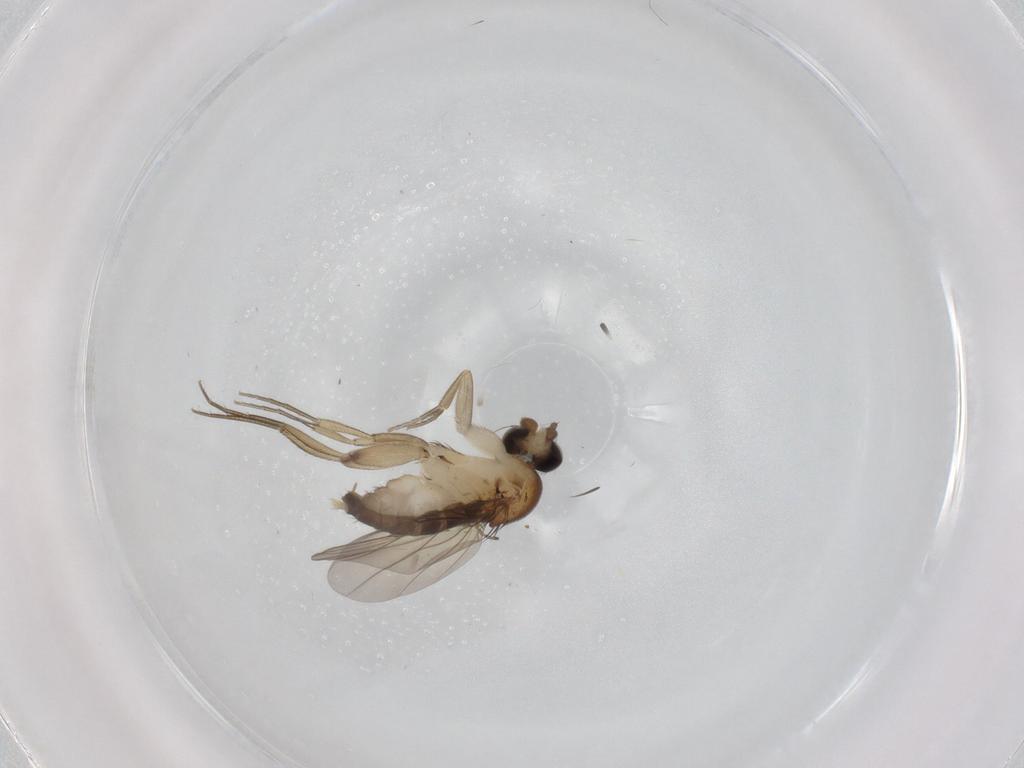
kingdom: Animalia
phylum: Arthropoda
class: Insecta
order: Diptera
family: Phoridae
